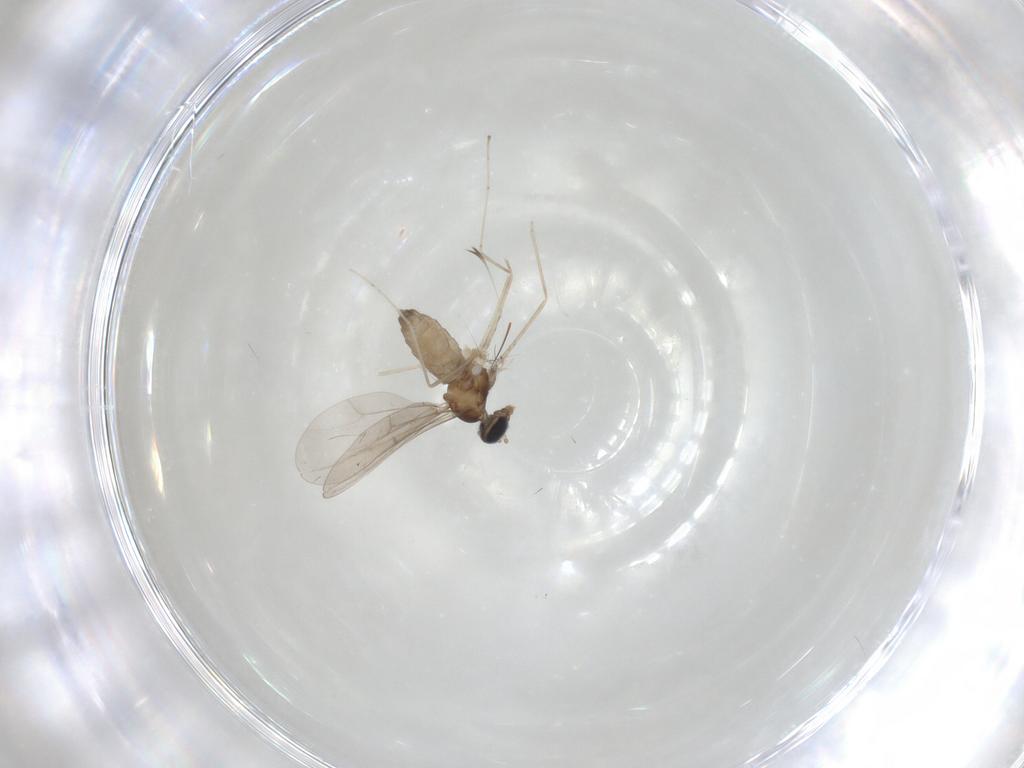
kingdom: Animalia
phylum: Arthropoda
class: Insecta
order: Diptera
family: Cecidomyiidae
